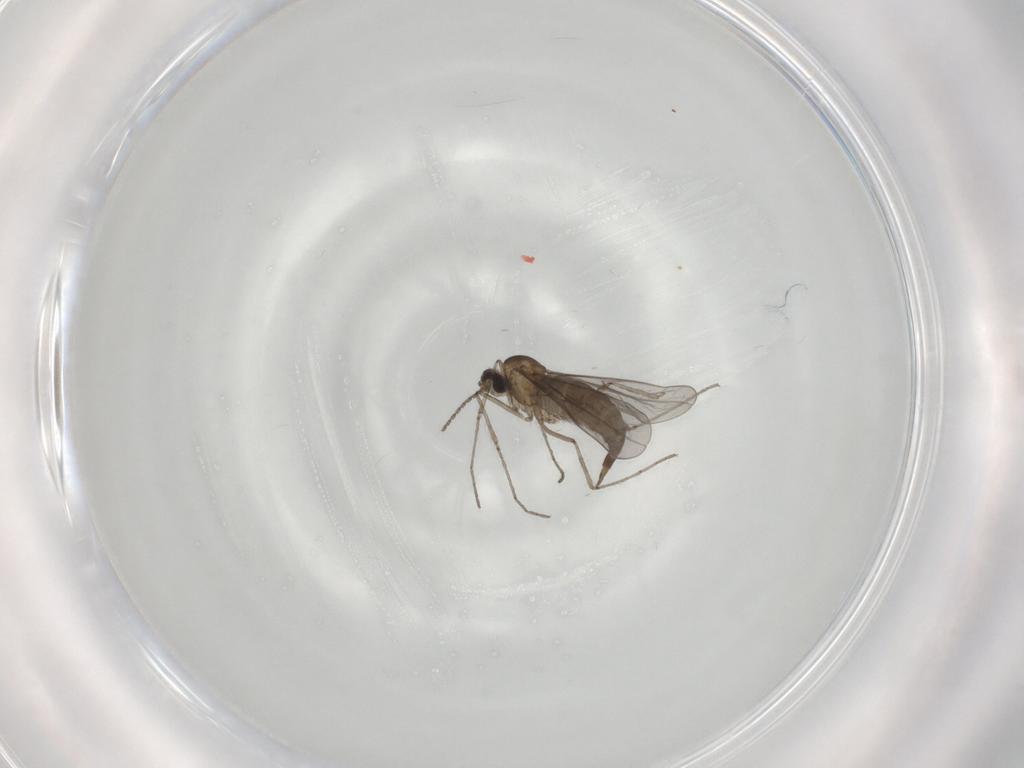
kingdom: Animalia
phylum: Arthropoda
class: Insecta
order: Diptera
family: Cecidomyiidae
